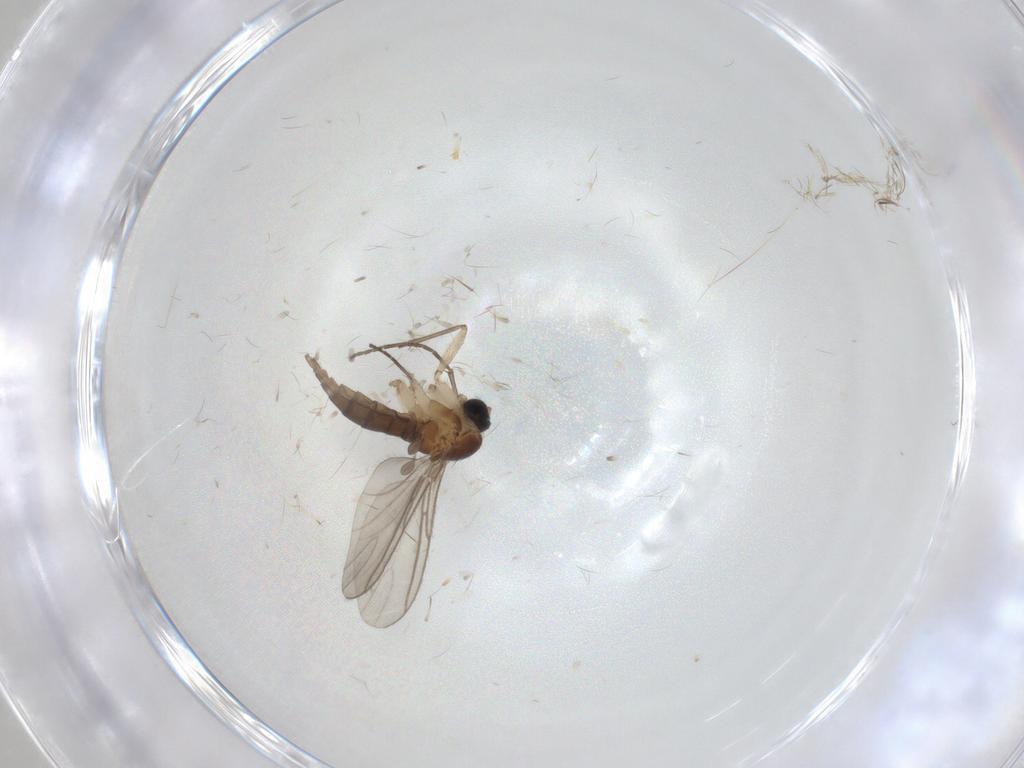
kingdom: Animalia
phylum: Arthropoda
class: Insecta
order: Diptera
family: Sciaridae
